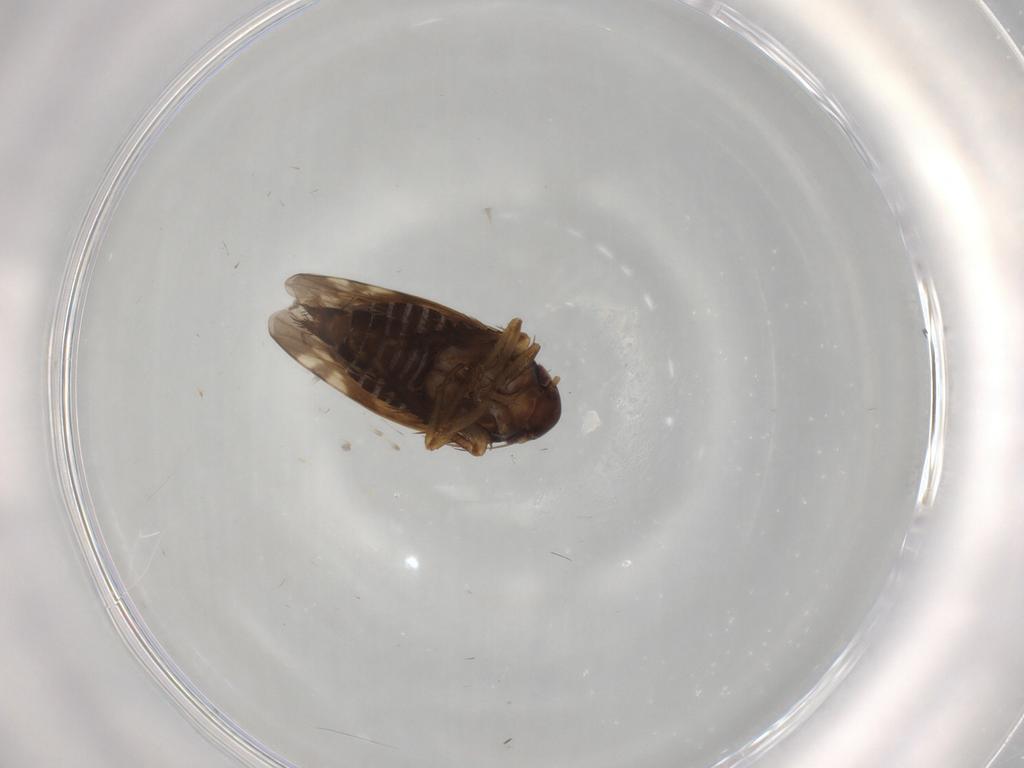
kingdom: Animalia
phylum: Arthropoda
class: Insecta
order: Hemiptera
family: Cicadellidae
